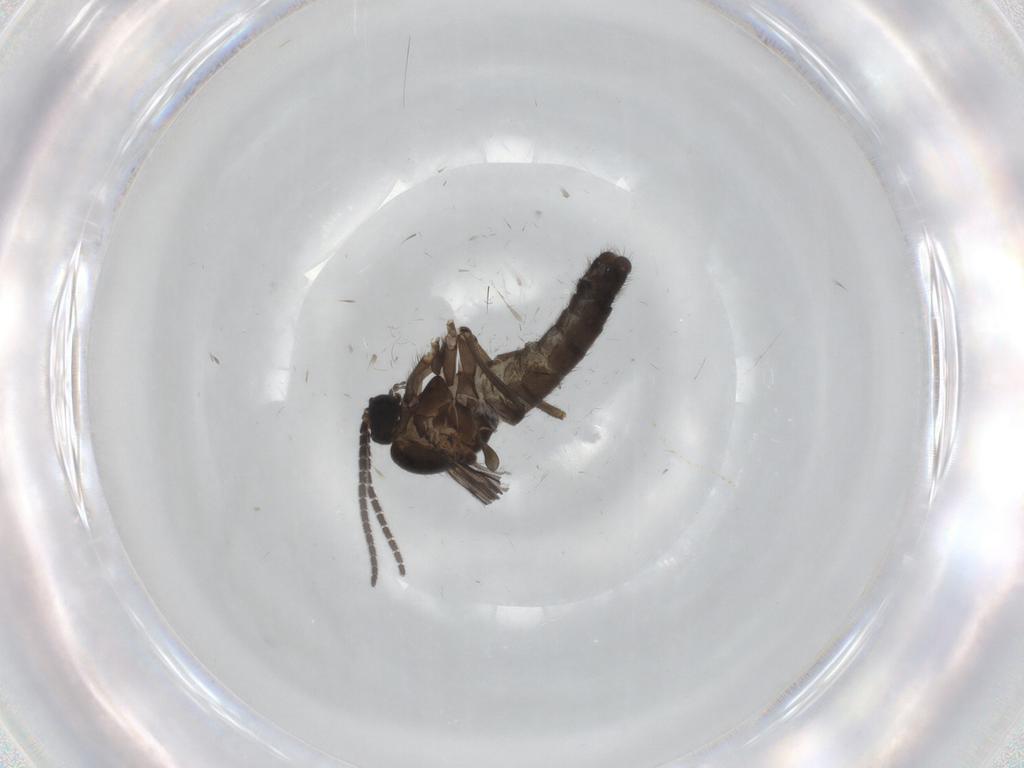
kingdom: Animalia
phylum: Arthropoda
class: Insecta
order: Diptera
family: Sciaridae
